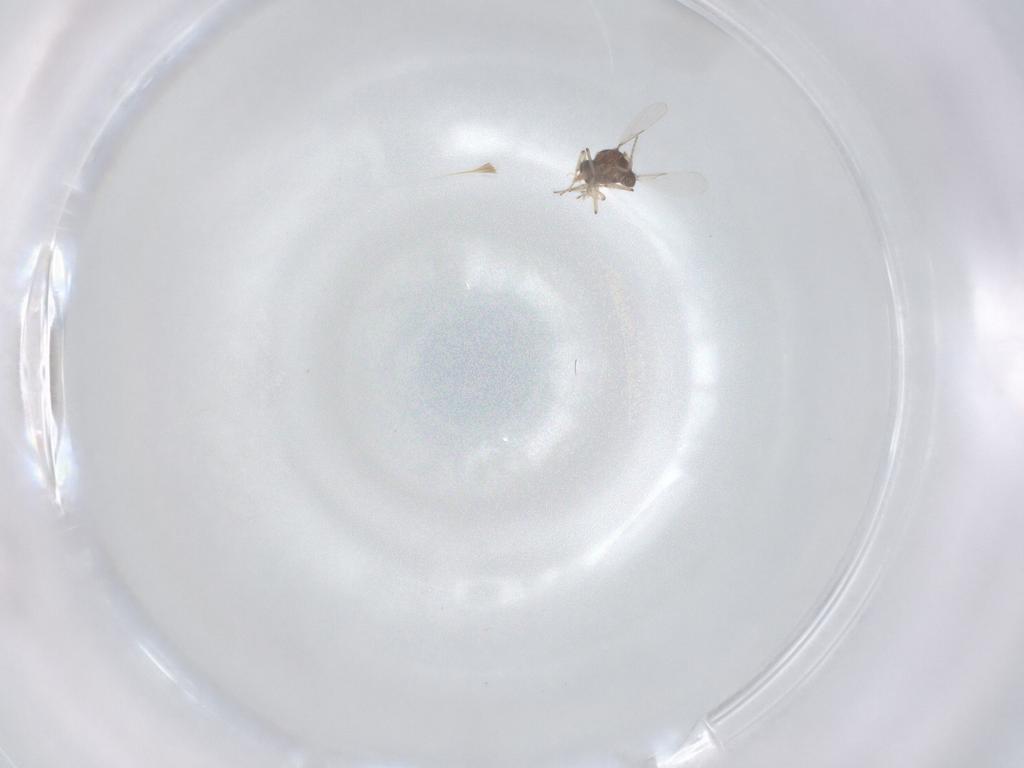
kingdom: Animalia
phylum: Arthropoda
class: Insecta
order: Diptera
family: Ceratopogonidae
